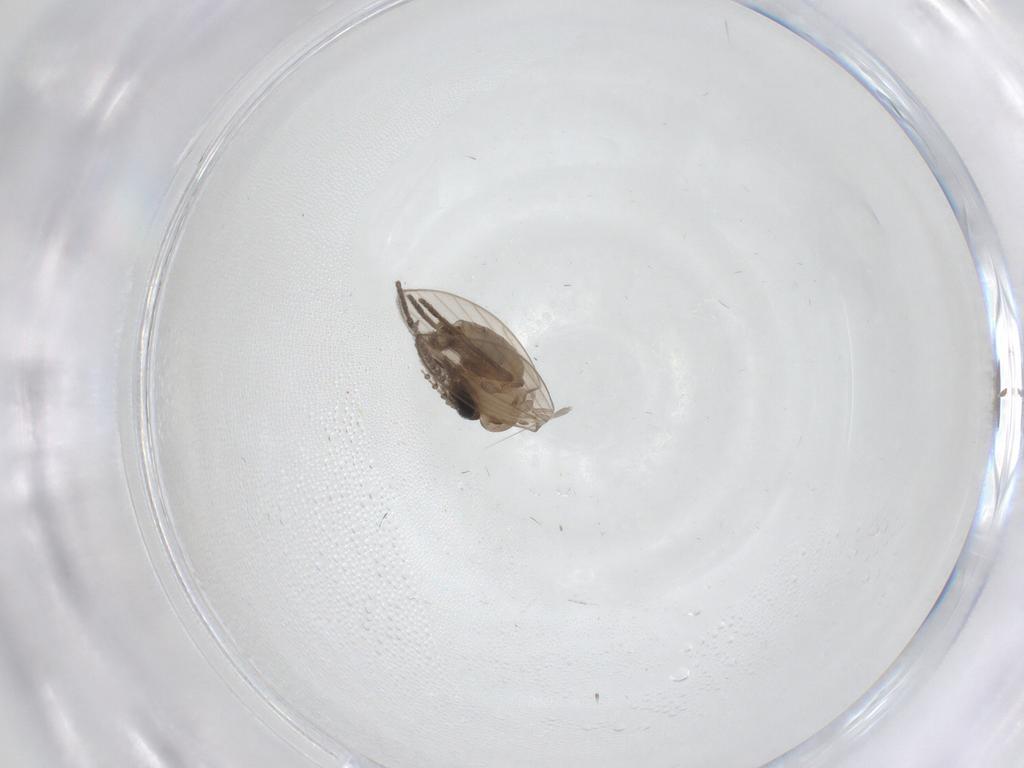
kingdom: Animalia
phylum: Arthropoda
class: Insecta
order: Diptera
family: Psychodidae
